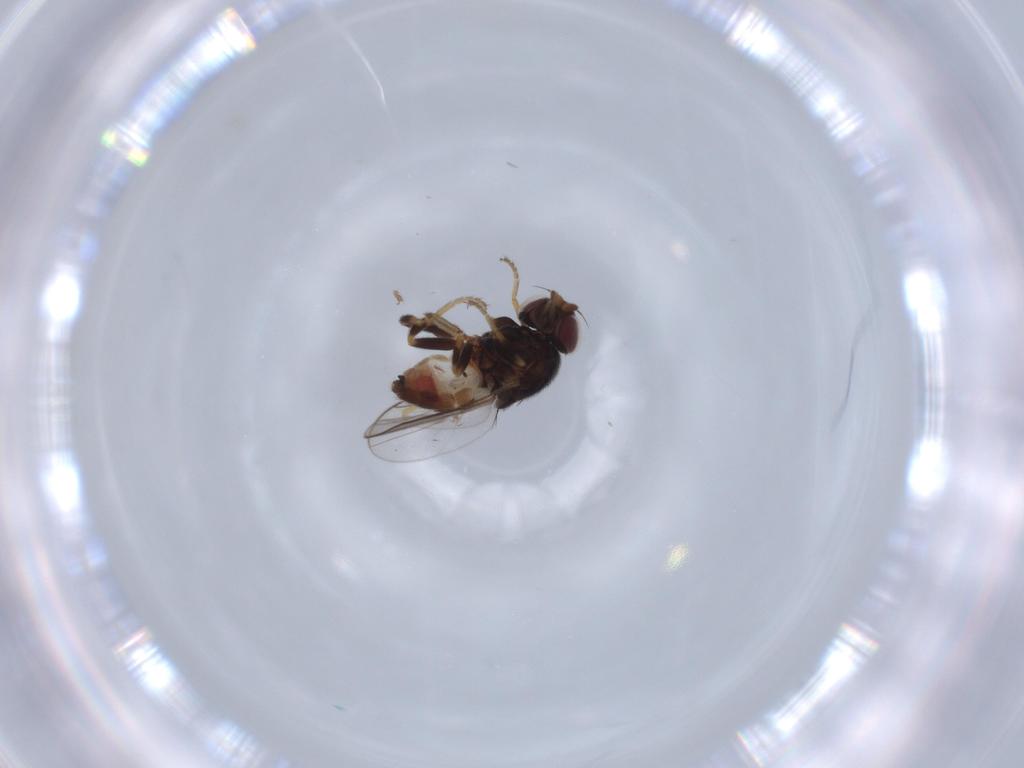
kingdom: Animalia
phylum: Arthropoda
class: Insecta
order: Diptera
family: Chloropidae
